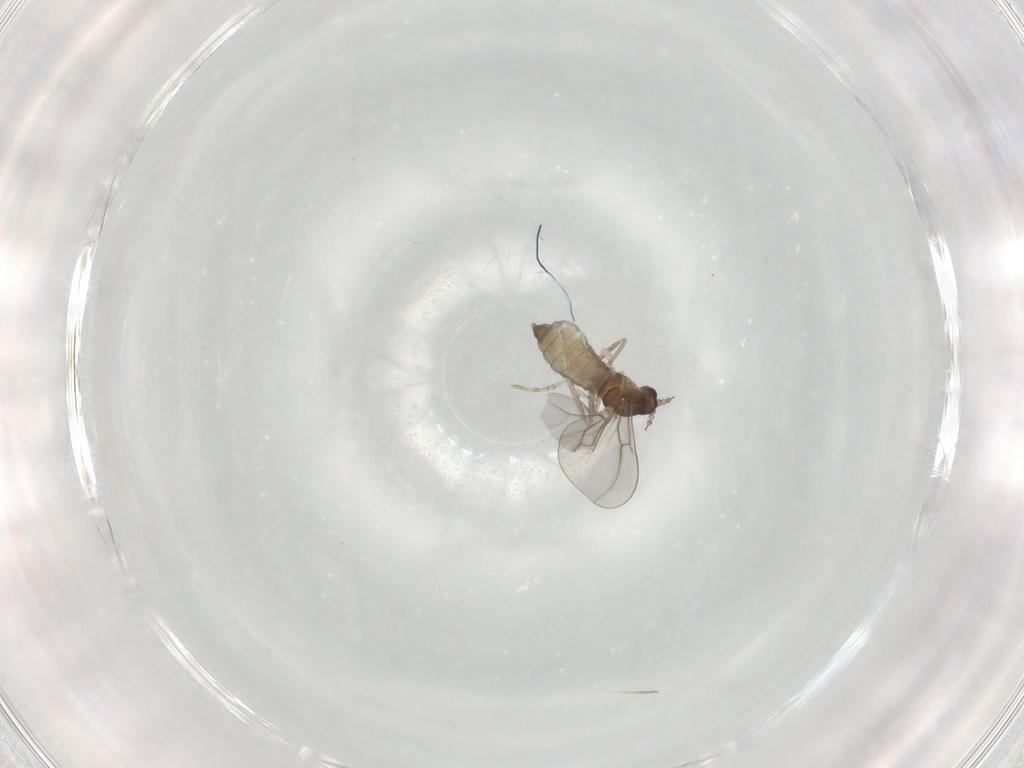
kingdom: Animalia
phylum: Arthropoda
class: Insecta
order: Diptera
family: Cecidomyiidae
